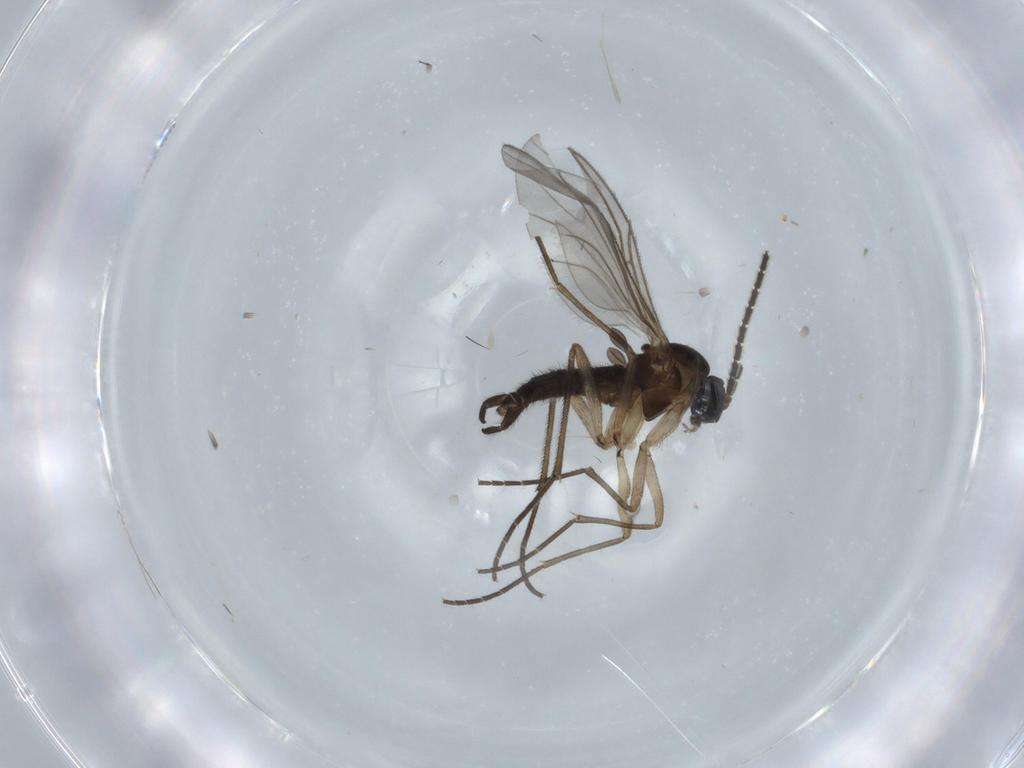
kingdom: Animalia
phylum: Arthropoda
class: Insecta
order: Diptera
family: Sciaridae
